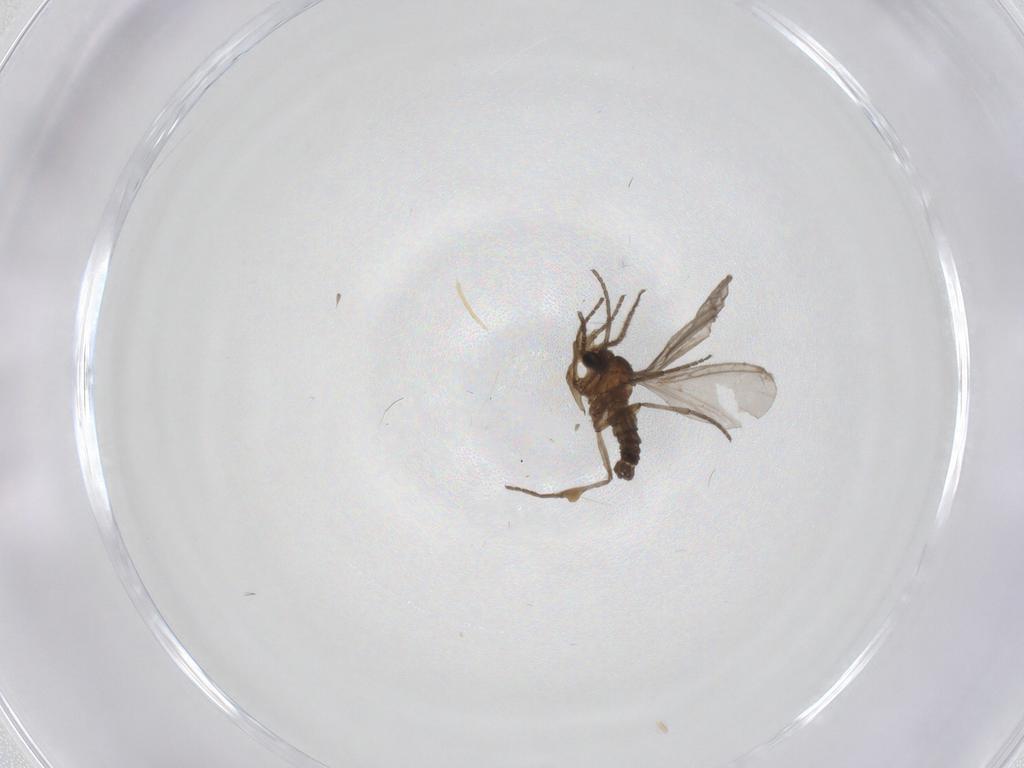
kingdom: Animalia
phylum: Arthropoda
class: Insecta
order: Diptera
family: Sciaridae
